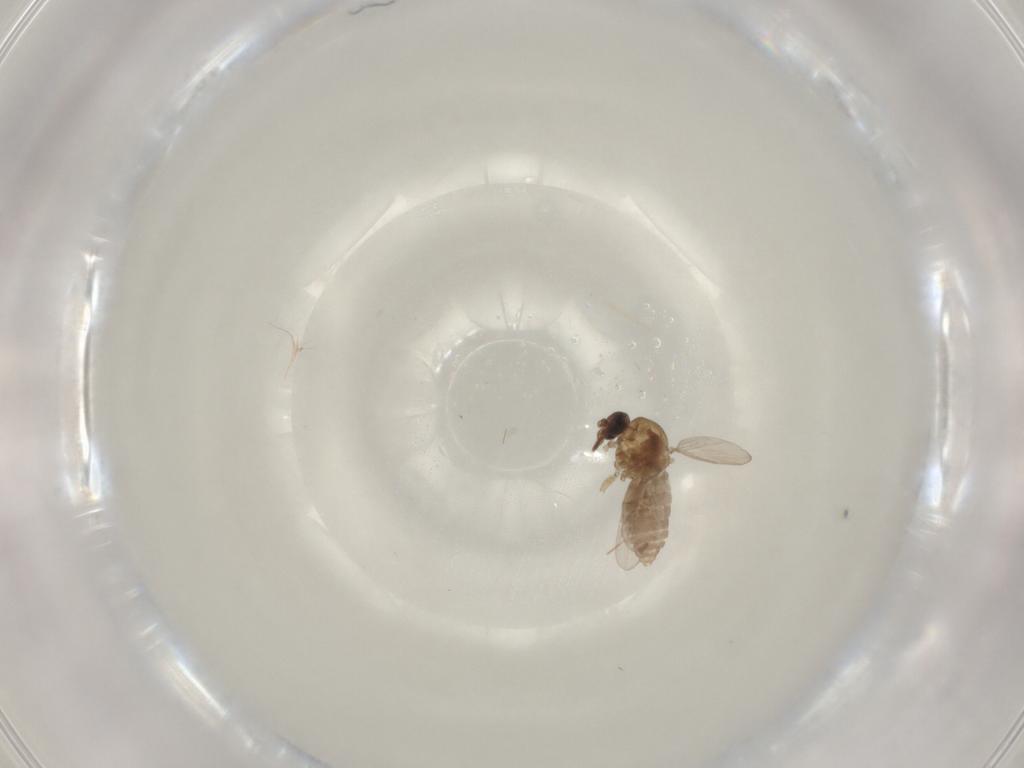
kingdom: Animalia
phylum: Arthropoda
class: Insecta
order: Diptera
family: Chironomidae
